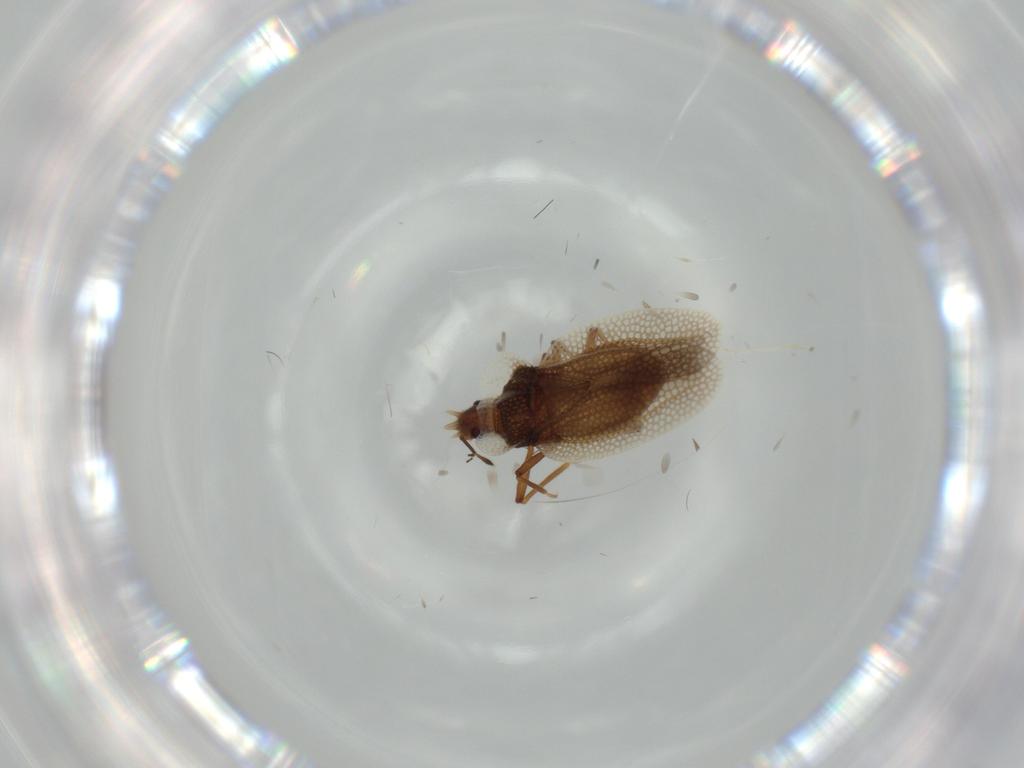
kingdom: Animalia
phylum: Arthropoda
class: Insecta
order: Hemiptera
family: Tingidae
